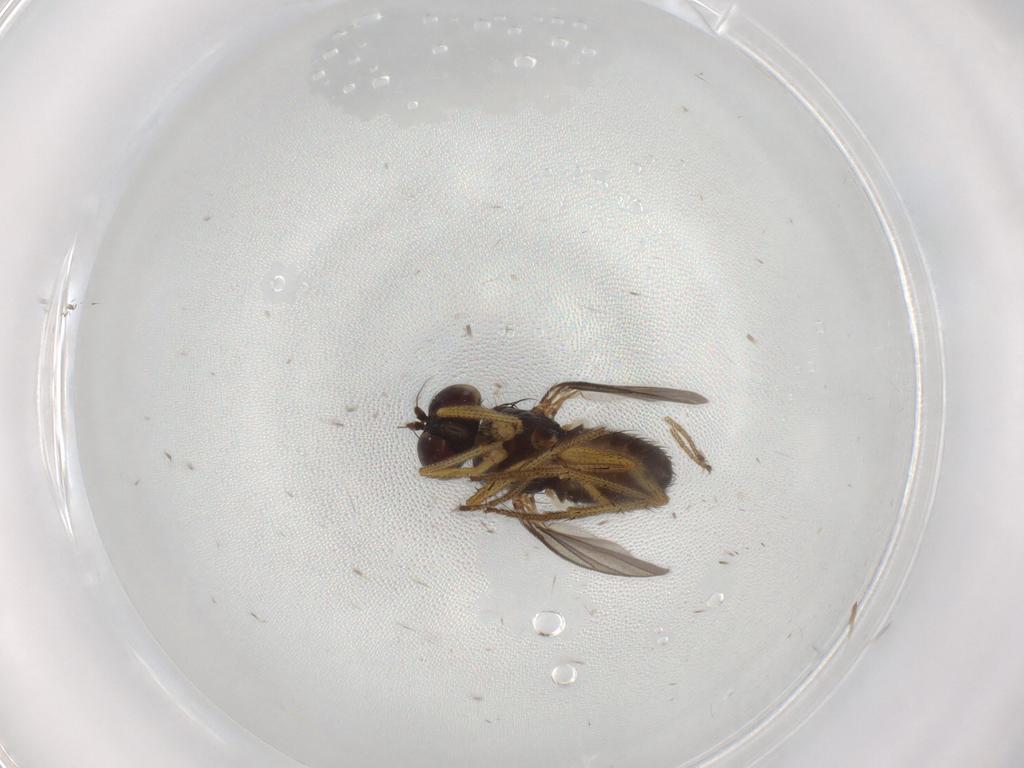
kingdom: Animalia
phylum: Arthropoda
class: Insecta
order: Diptera
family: Dolichopodidae
